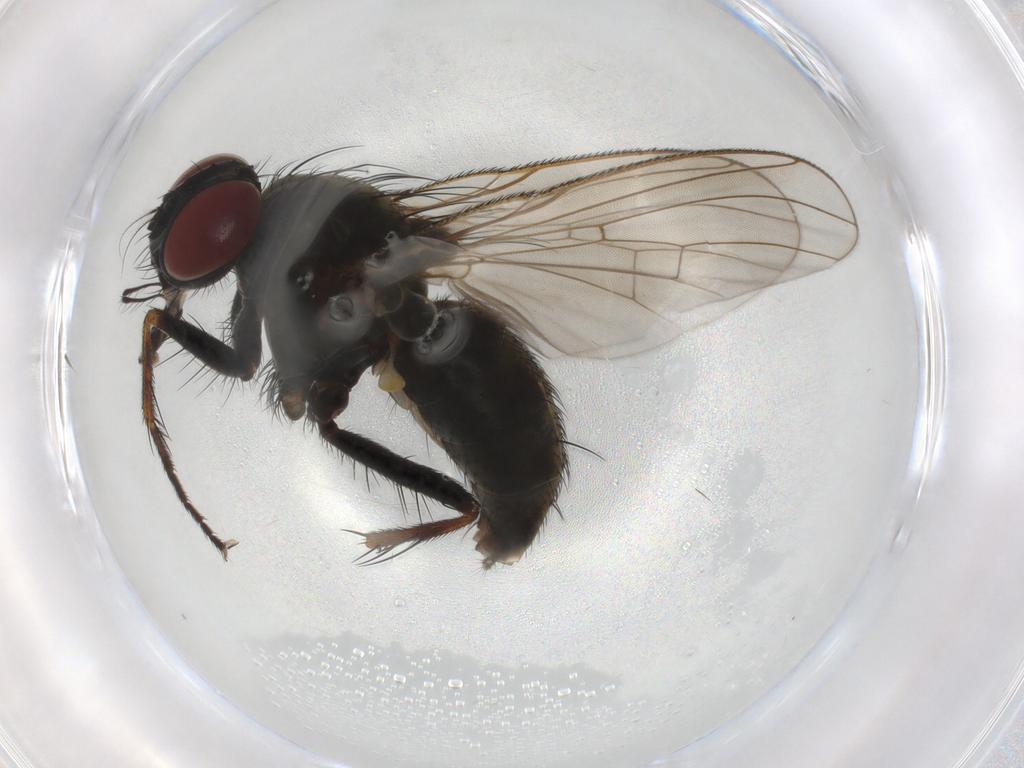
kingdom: Animalia
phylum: Arthropoda
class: Insecta
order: Diptera
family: Muscidae
